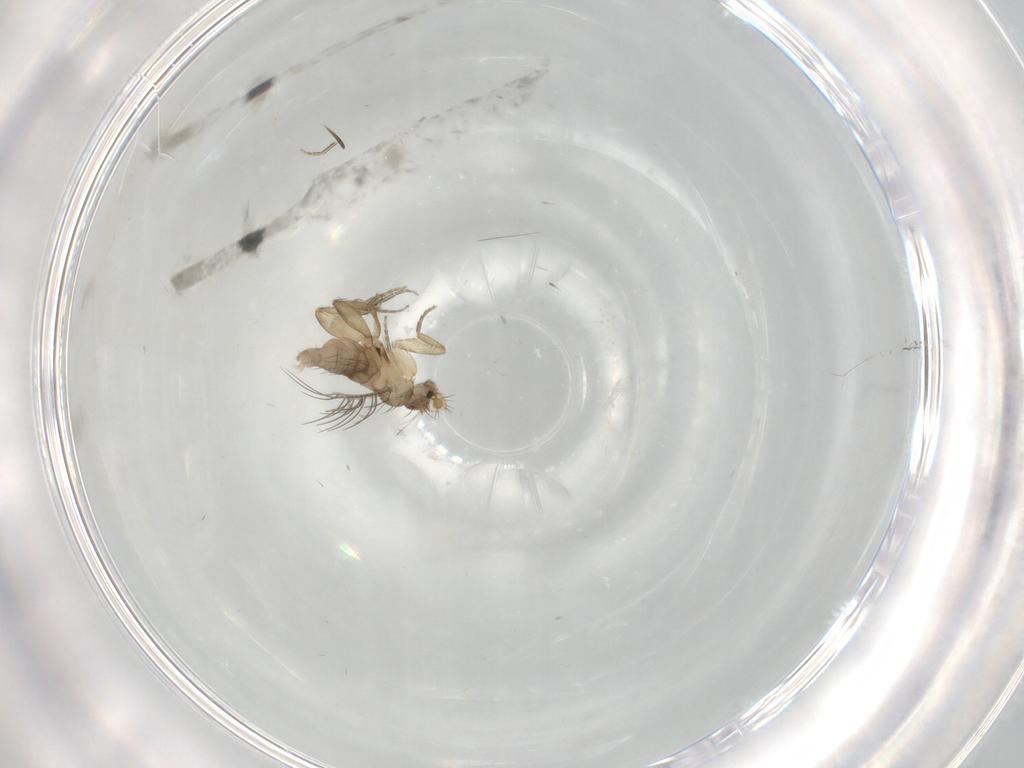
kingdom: Animalia
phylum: Arthropoda
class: Insecta
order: Diptera
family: Phoridae
